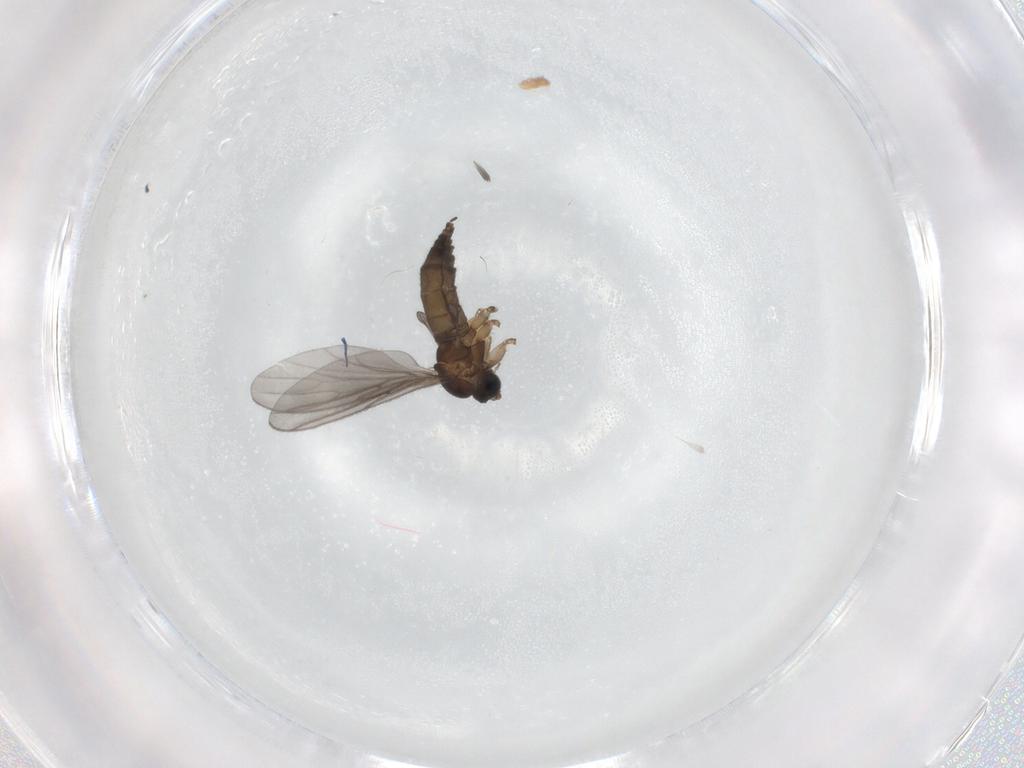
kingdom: Animalia
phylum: Arthropoda
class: Insecta
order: Diptera
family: Sciaridae
